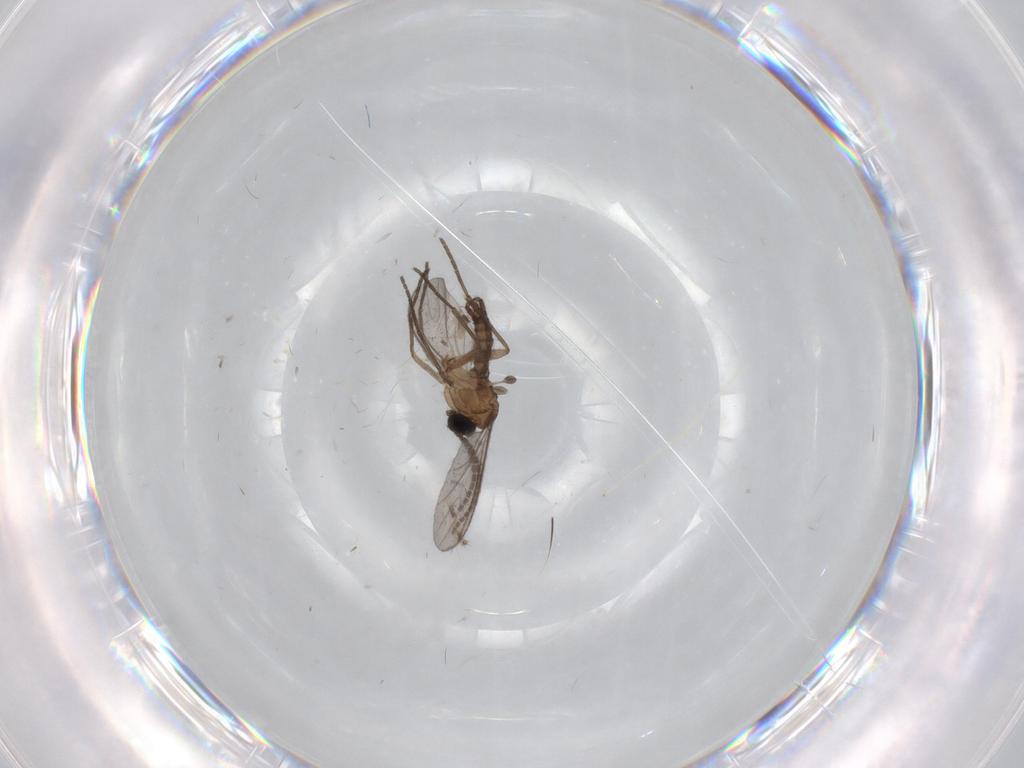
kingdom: Animalia
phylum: Arthropoda
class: Insecta
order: Diptera
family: Cecidomyiidae
